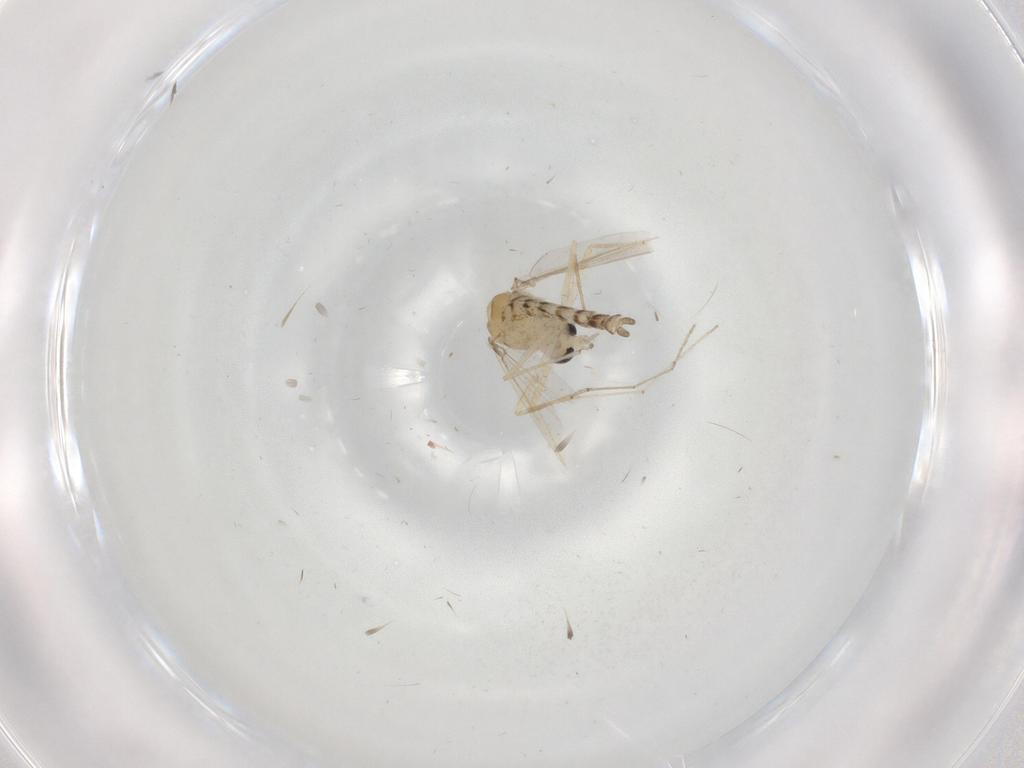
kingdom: Animalia
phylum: Arthropoda
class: Insecta
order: Diptera
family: Chironomidae
